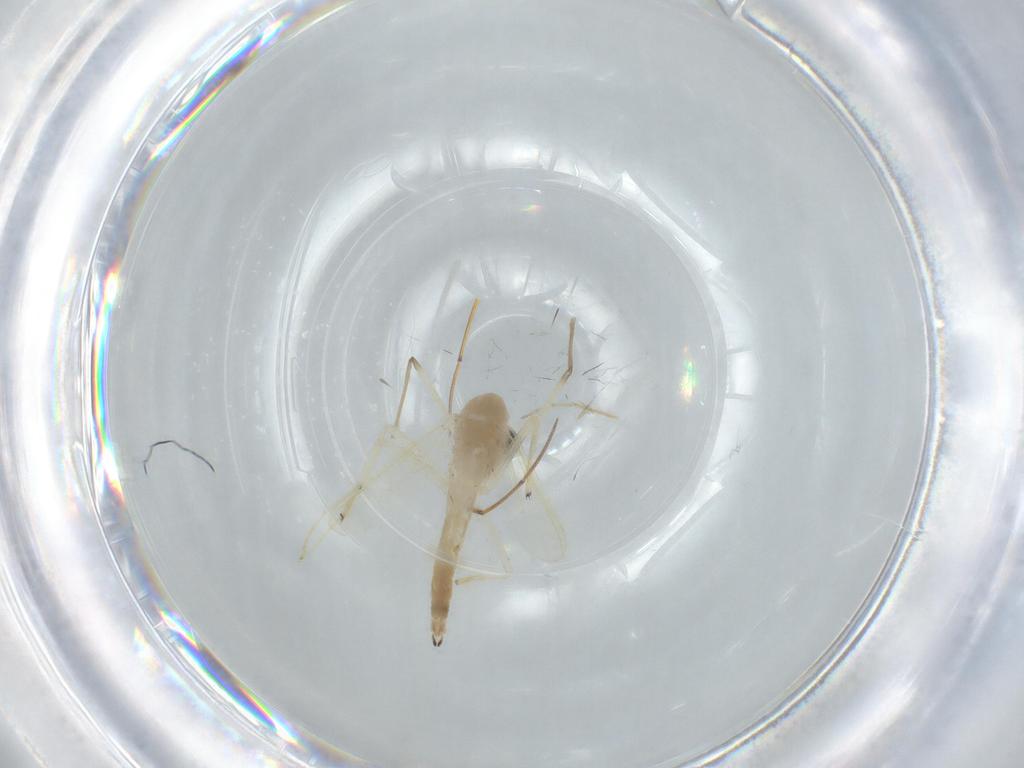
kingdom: Animalia
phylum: Arthropoda
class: Insecta
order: Diptera
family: Chironomidae
